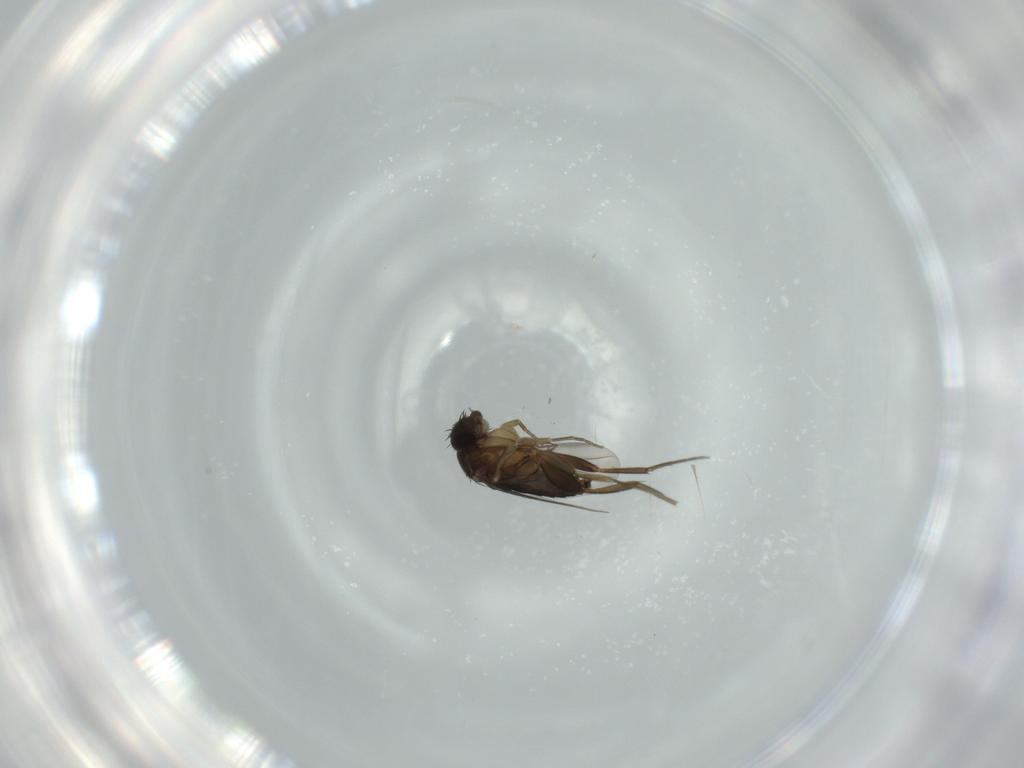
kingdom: Animalia
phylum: Arthropoda
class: Insecta
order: Diptera
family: Phoridae
